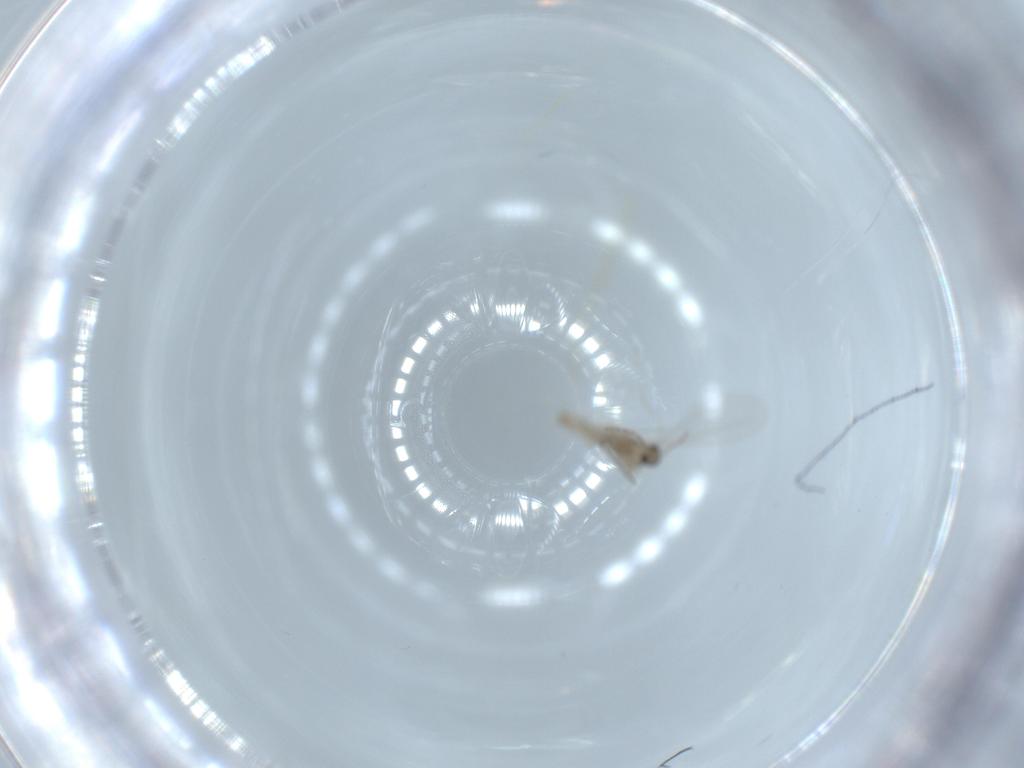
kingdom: Animalia
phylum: Arthropoda
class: Insecta
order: Diptera
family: Cecidomyiidae
